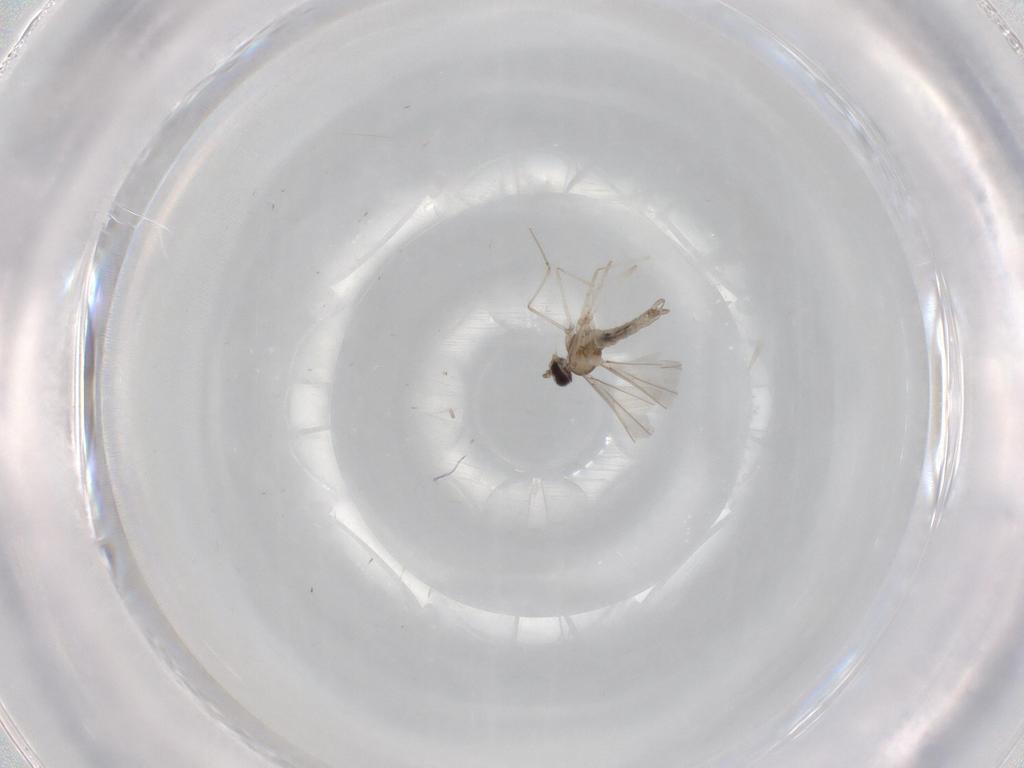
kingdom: Animalia
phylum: Arthropoda
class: Insecta
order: Diptera
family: Cecidomyiidae
